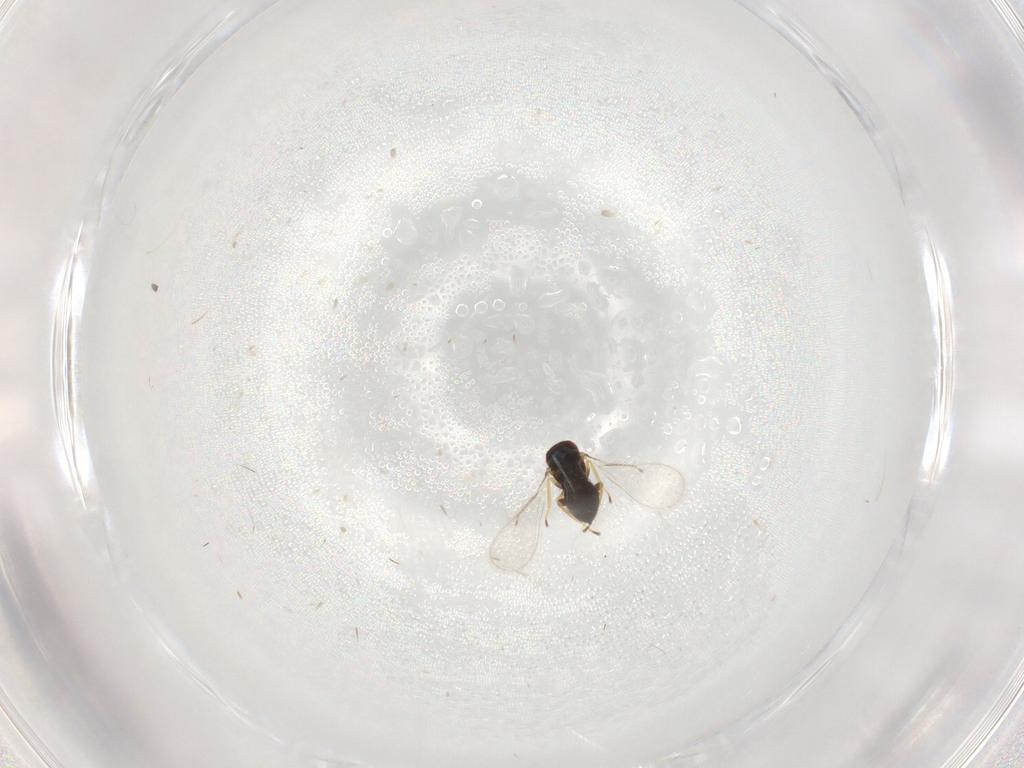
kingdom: Animalia
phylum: Arthropoda
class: Insecta
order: Hymenoptera
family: Eulophidae
